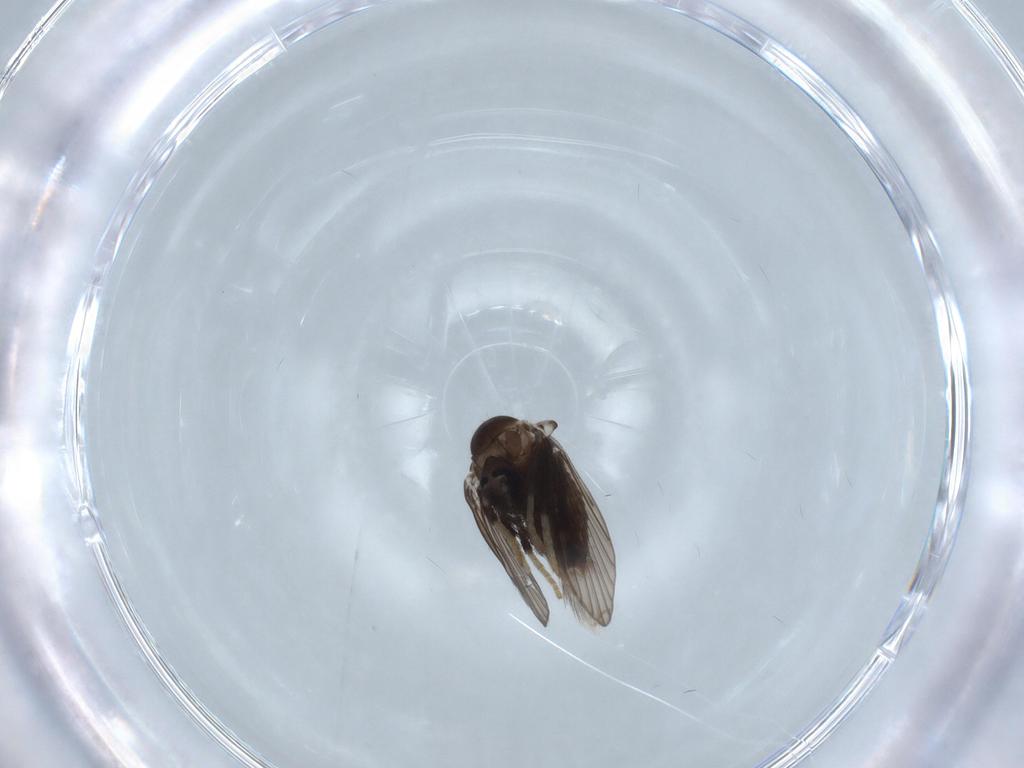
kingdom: Animalia
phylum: Arthropoda
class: Insecta
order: Diptera
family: Psychodidae
